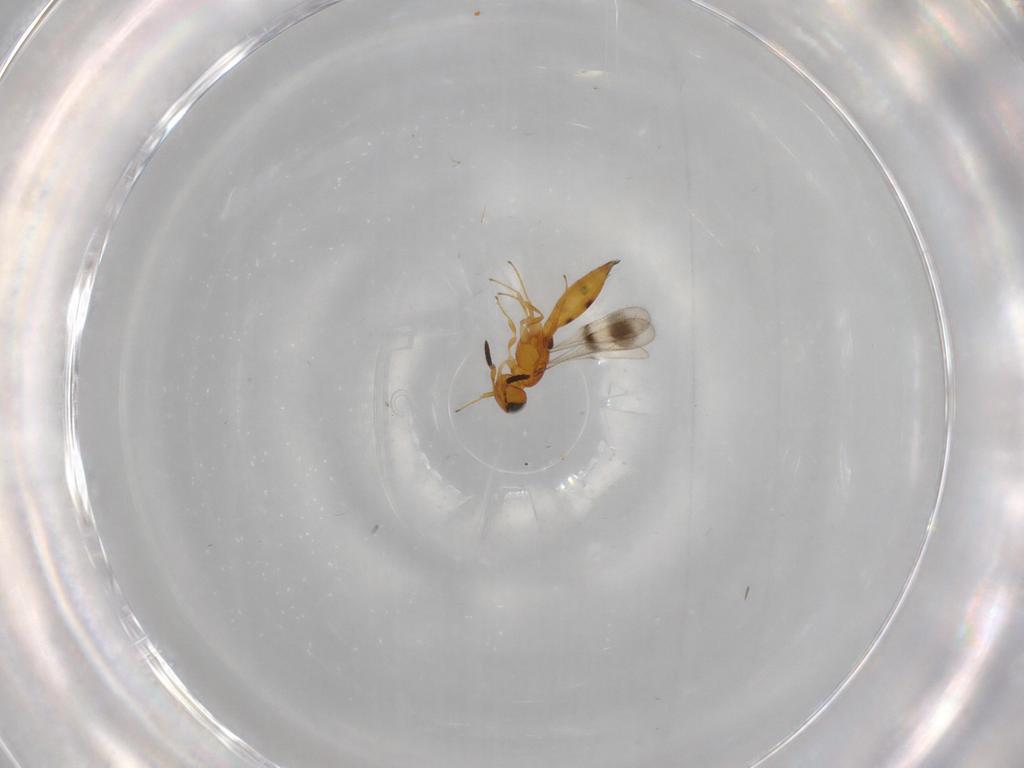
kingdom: Animalia
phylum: Arthropoda
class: Insecta
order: Hymenoptera
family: Scelionidae
